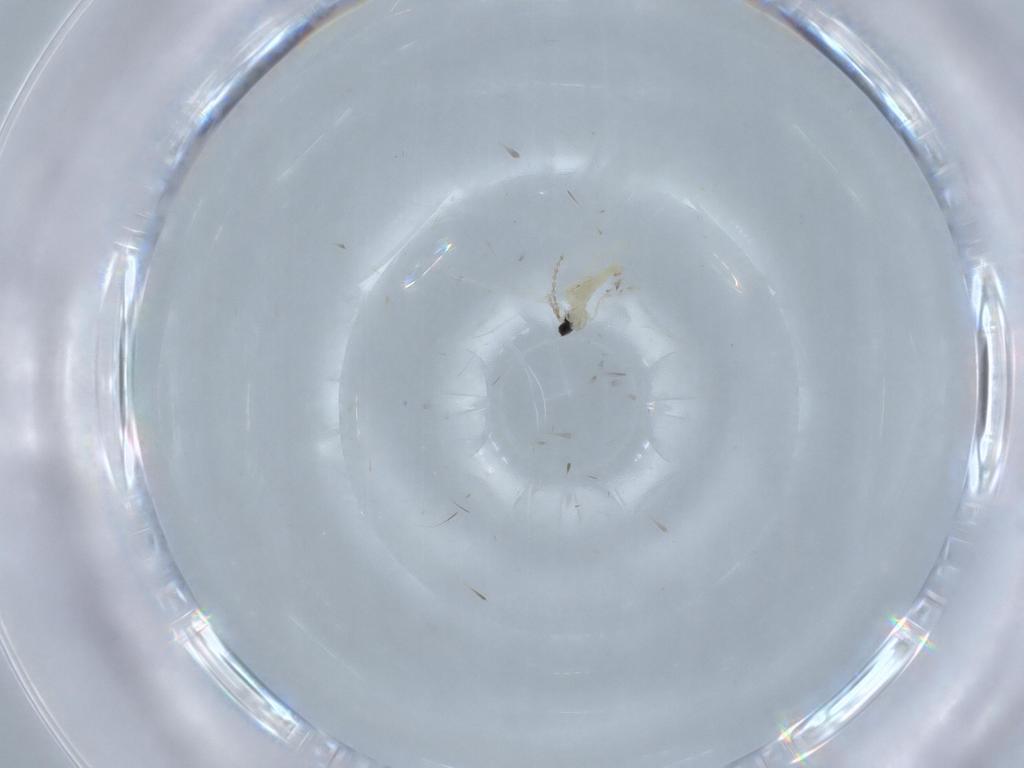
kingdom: Animalia
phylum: Arthropoda
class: Insecta
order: Diptera
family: Cecidomyiidae
